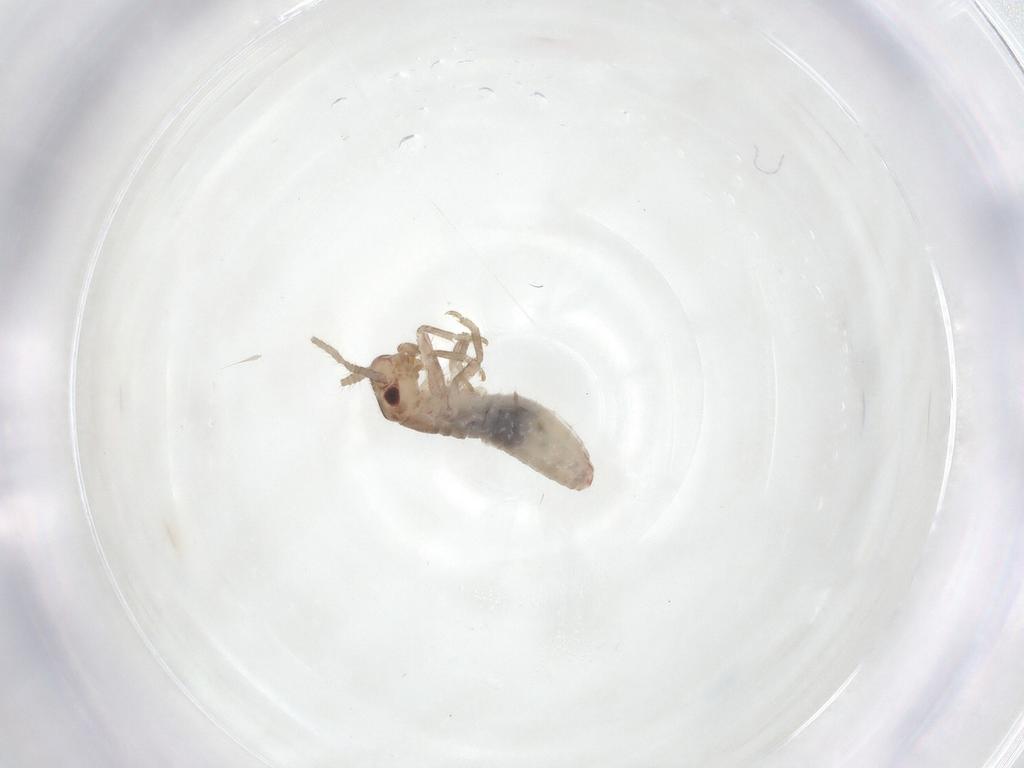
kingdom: Animalia
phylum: Arthropoda
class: Insecta
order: Orthoptera
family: Mogoplistidae
